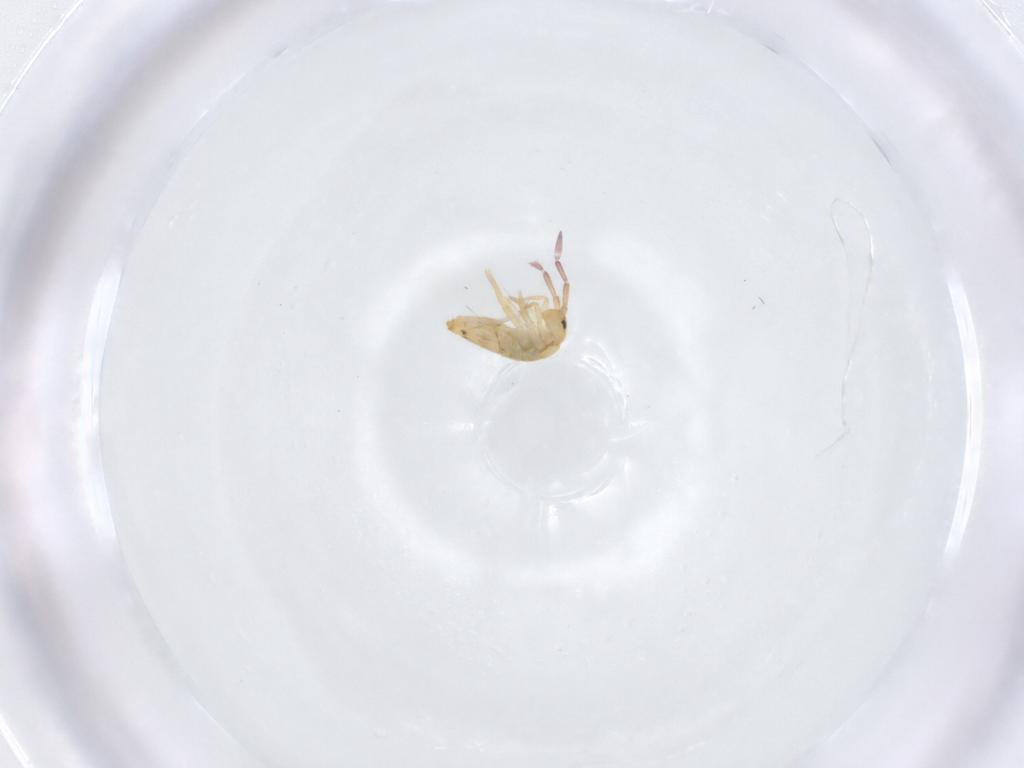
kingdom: Animalia
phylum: Arthropoda
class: Collembola
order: Entomobryomorpha
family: Entomobryidae
